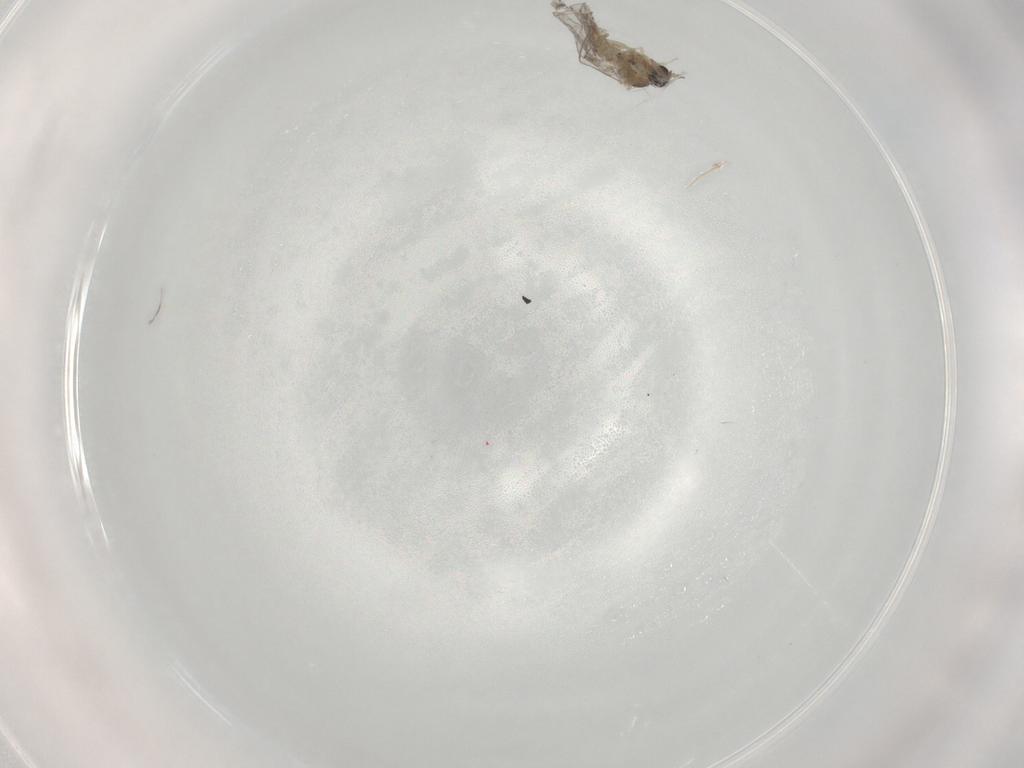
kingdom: Animalia
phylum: Arthropoda
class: Insecta
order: Diptera
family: Cecidomyiidae
